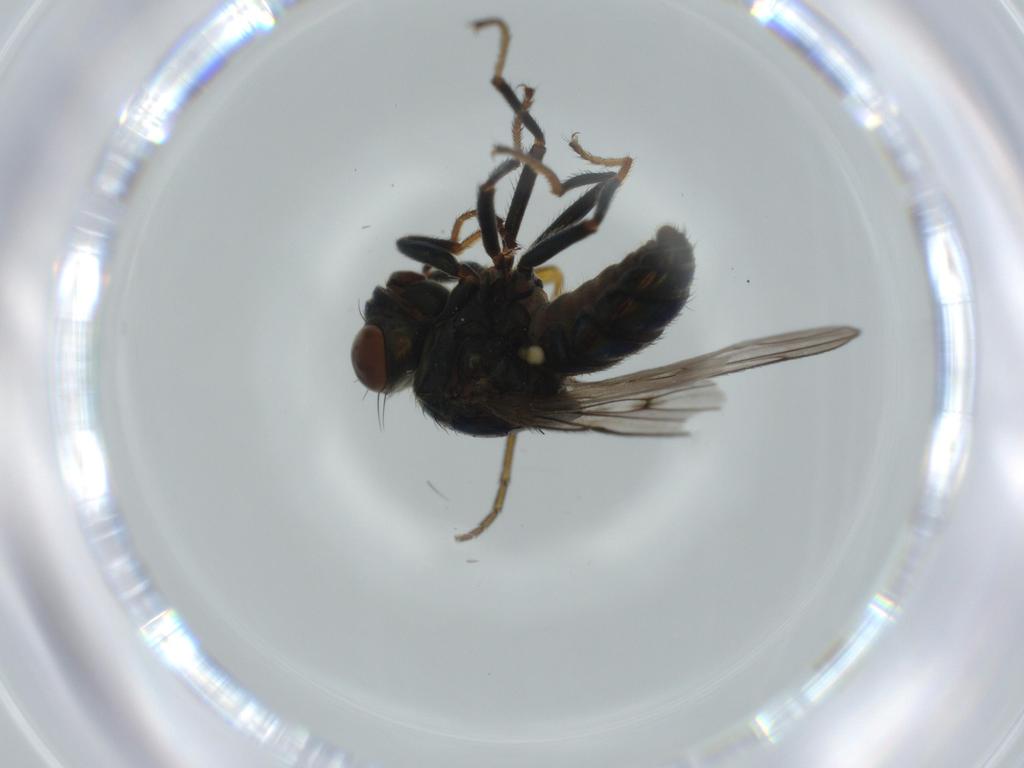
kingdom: Animalia
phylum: Arthropoda
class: Insecta
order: Diptera
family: Ephydridae
